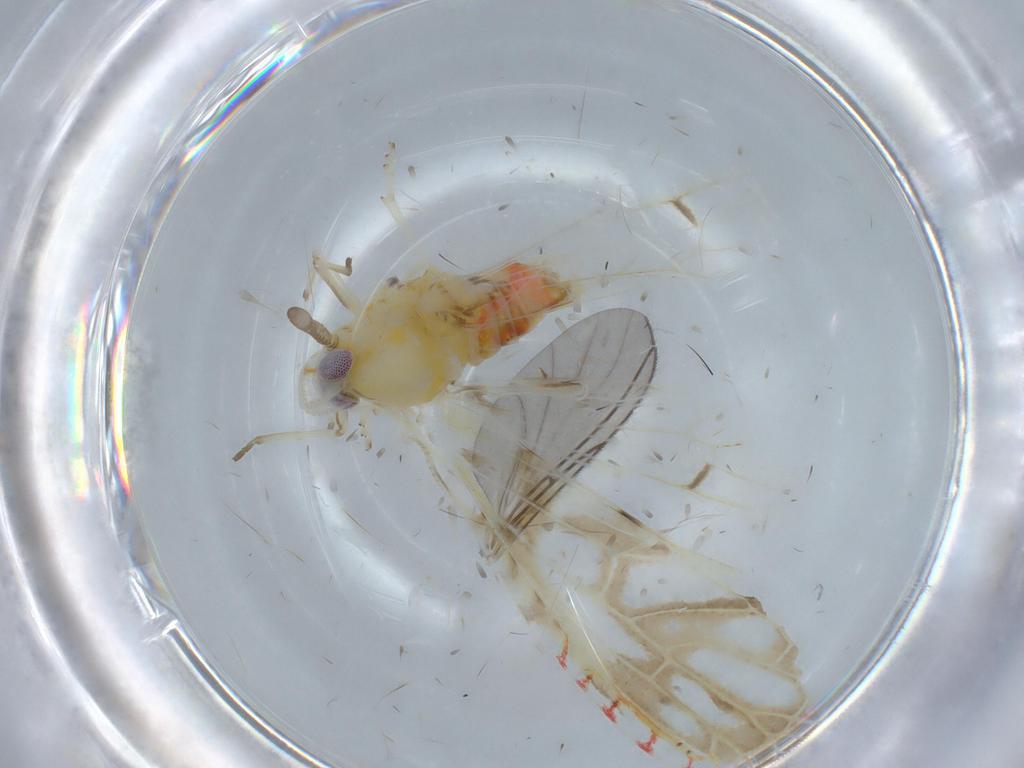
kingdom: Animalia
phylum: Arthropoda
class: Insecta
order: Hemiptera
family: Derbidae
